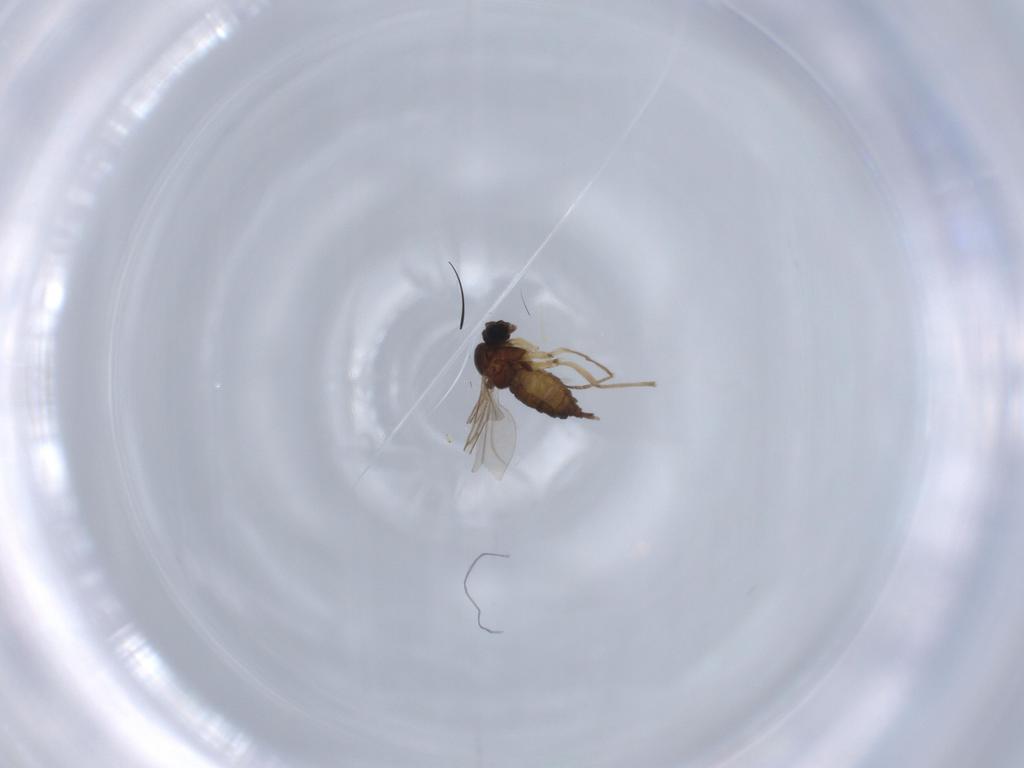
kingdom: Animalia
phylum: Arthropoda
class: Insecta
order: Diptera
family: Sciaridae
